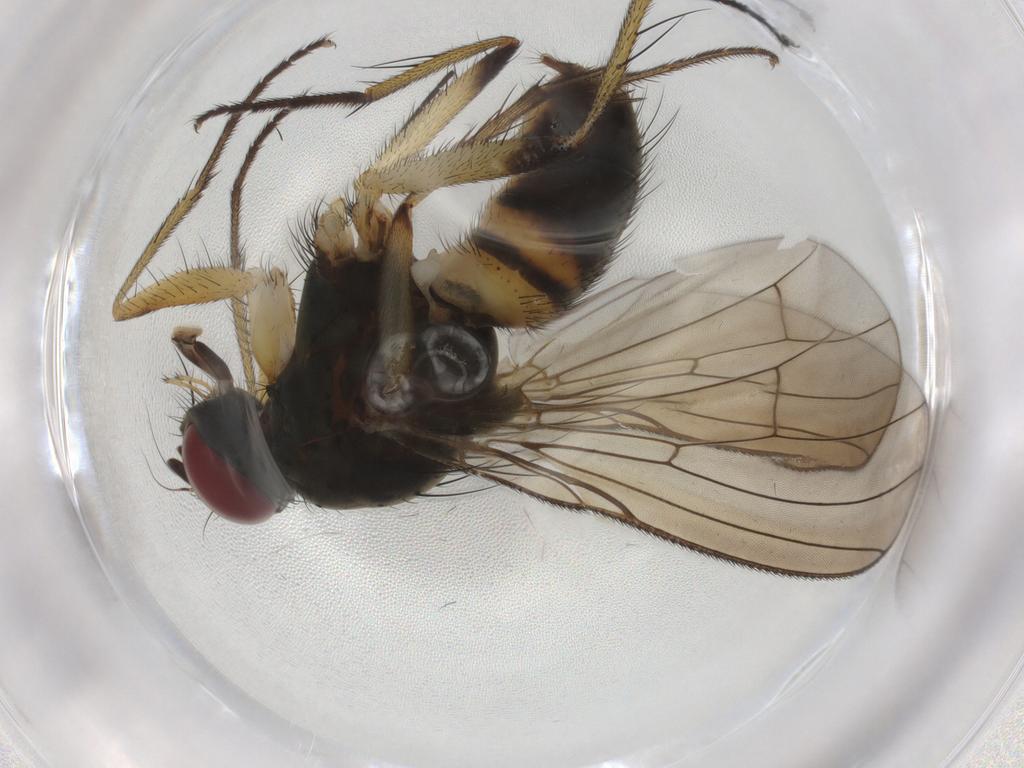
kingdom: Animalia
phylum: Arthropoda
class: Insecta
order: Diptera
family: Muscidae
